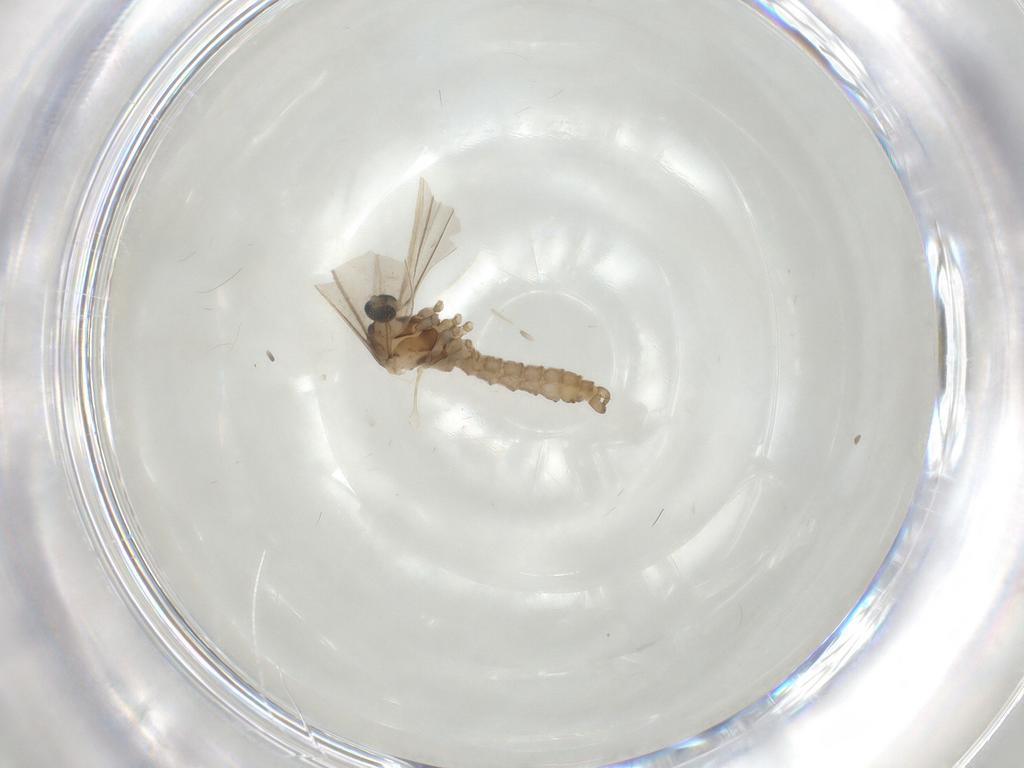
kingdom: Animalia
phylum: Arthropoda
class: Insecta
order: Diptera
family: Cecidomyiidae
